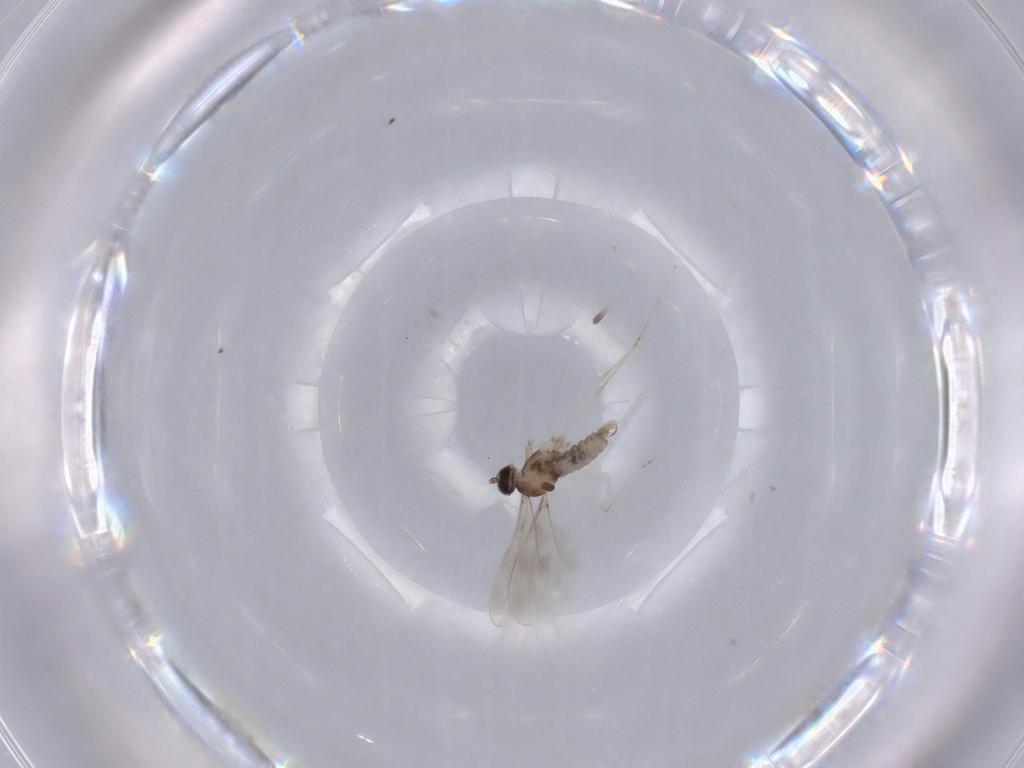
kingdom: Animalia
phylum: Arthropoda
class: Insecta
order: Diptera
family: Cecidomyiidae
